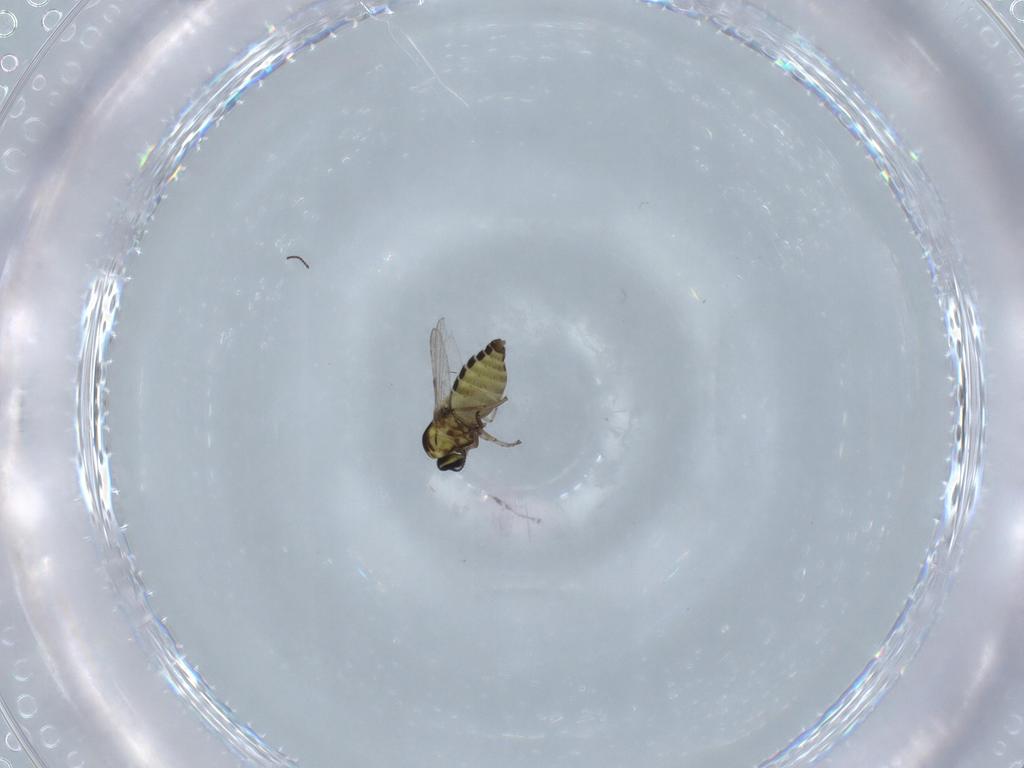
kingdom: Animalia
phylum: Arthropoda
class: Insecta
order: Diptera
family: Ceratopogonidae
